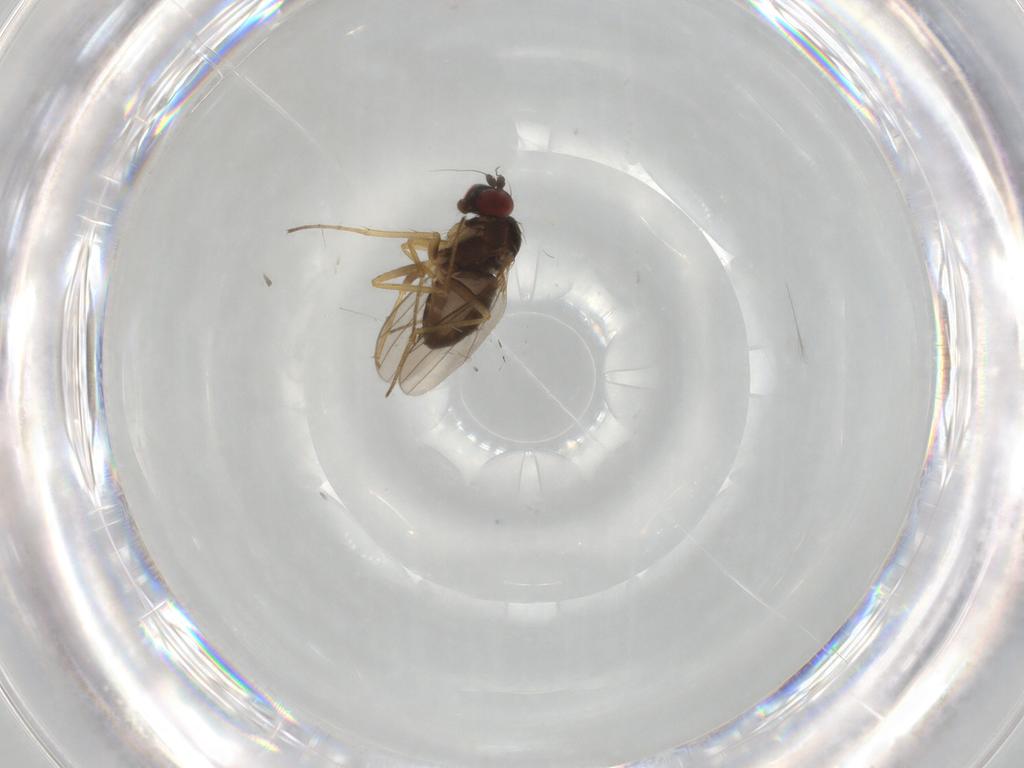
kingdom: Animalia
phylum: Arthropoda
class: Insecta
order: Diptera
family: Dolichopodidae
